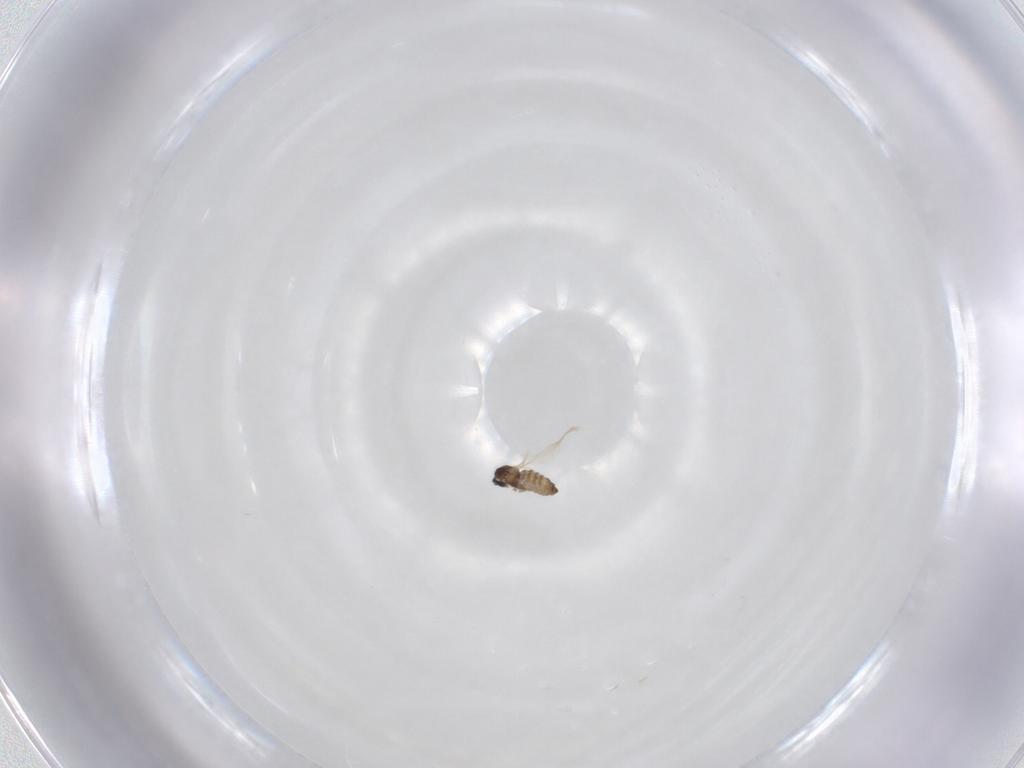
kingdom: Animalia
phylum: Arthropoda
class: Insecta
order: Diptera
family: Cecidomyiidae
